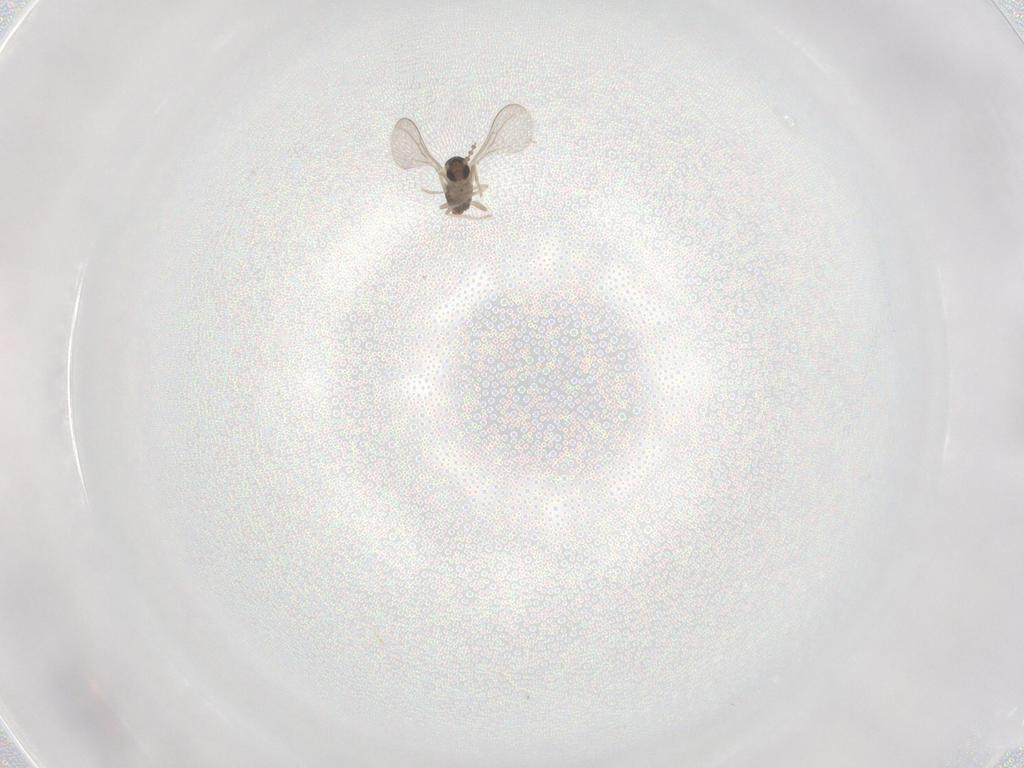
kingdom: Animalia
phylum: Arthropoda
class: Insecta
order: Diptera
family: Cecidomyiidae
